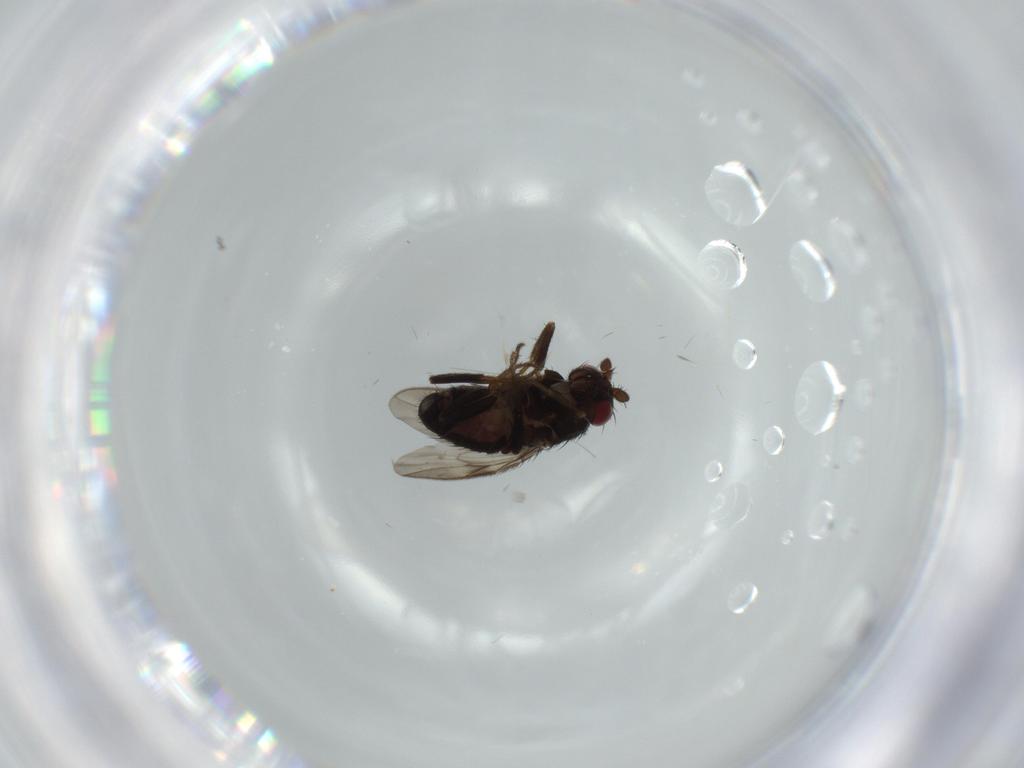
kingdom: Animalia
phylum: Arthropoda
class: Insecta
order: Diptera
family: Sphaeroceridae
